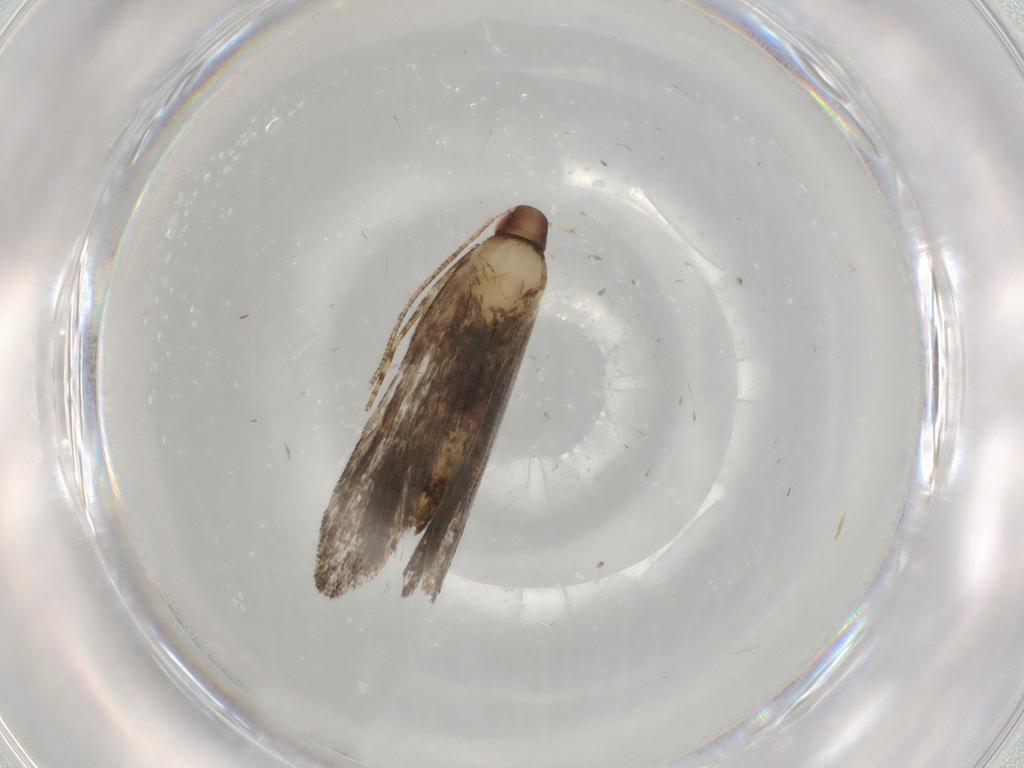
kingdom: Animalia
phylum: Arthropoda
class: Insecta
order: Lepidoptera
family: Gelechiidae
